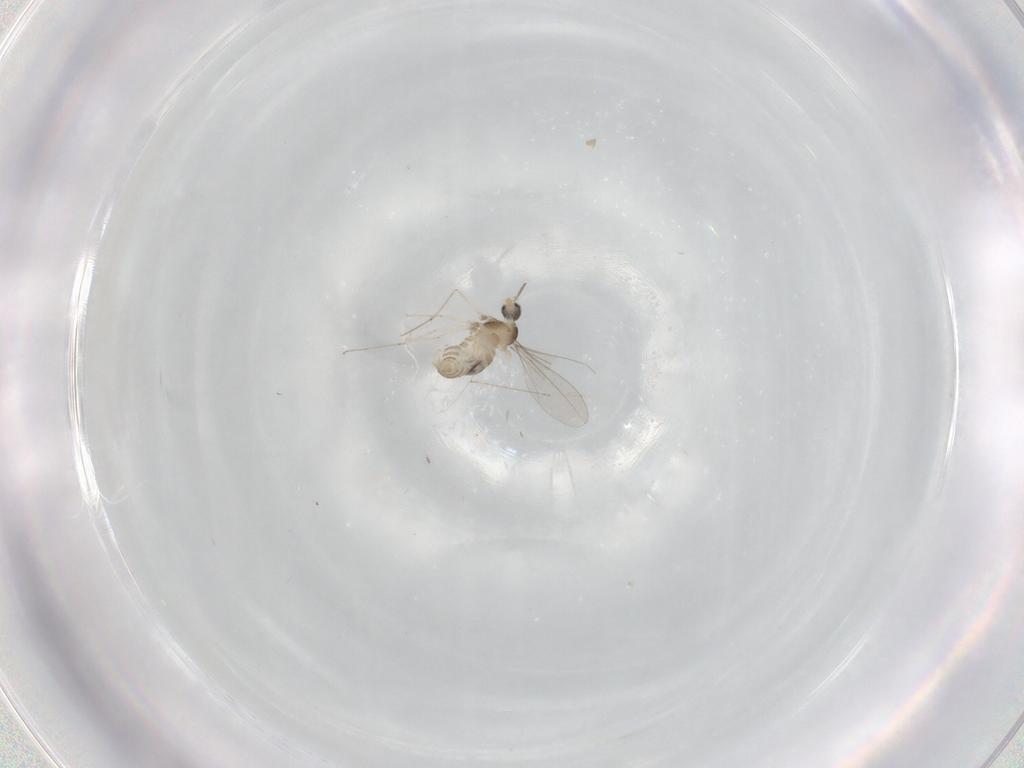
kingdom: Animalia
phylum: Arthropoda
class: Insecta
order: Diptera
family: Cecidomyiidae
